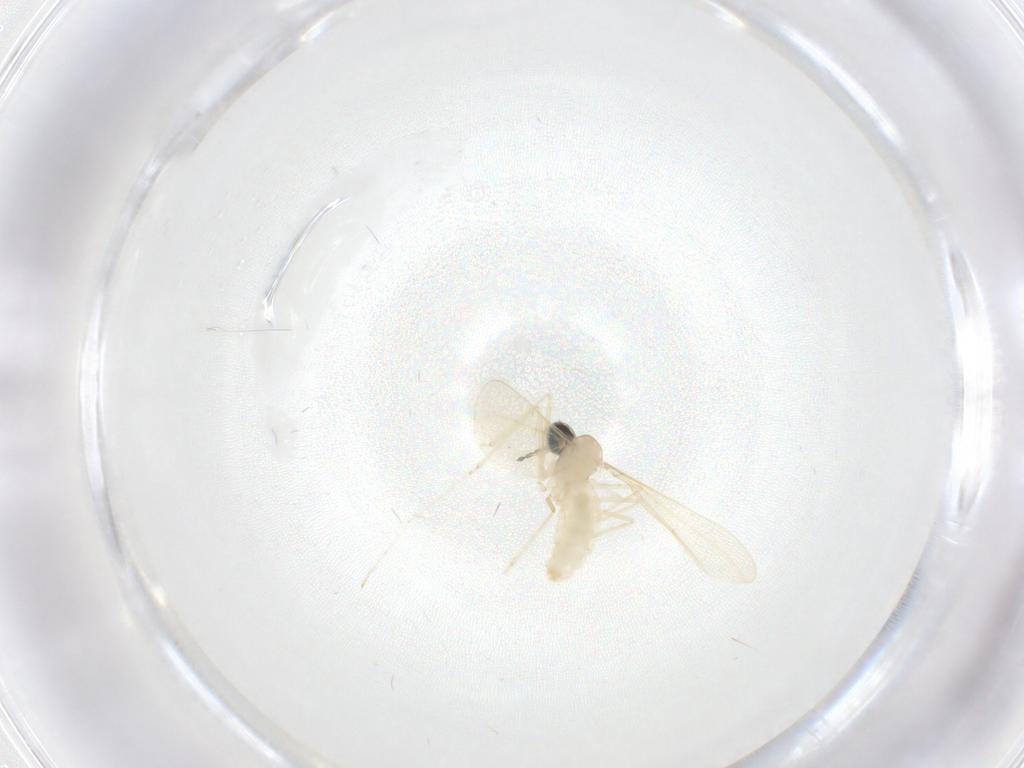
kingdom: Animalia
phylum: Arthropoda
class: Insecta
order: Diptera
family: Cecidomyiidae
